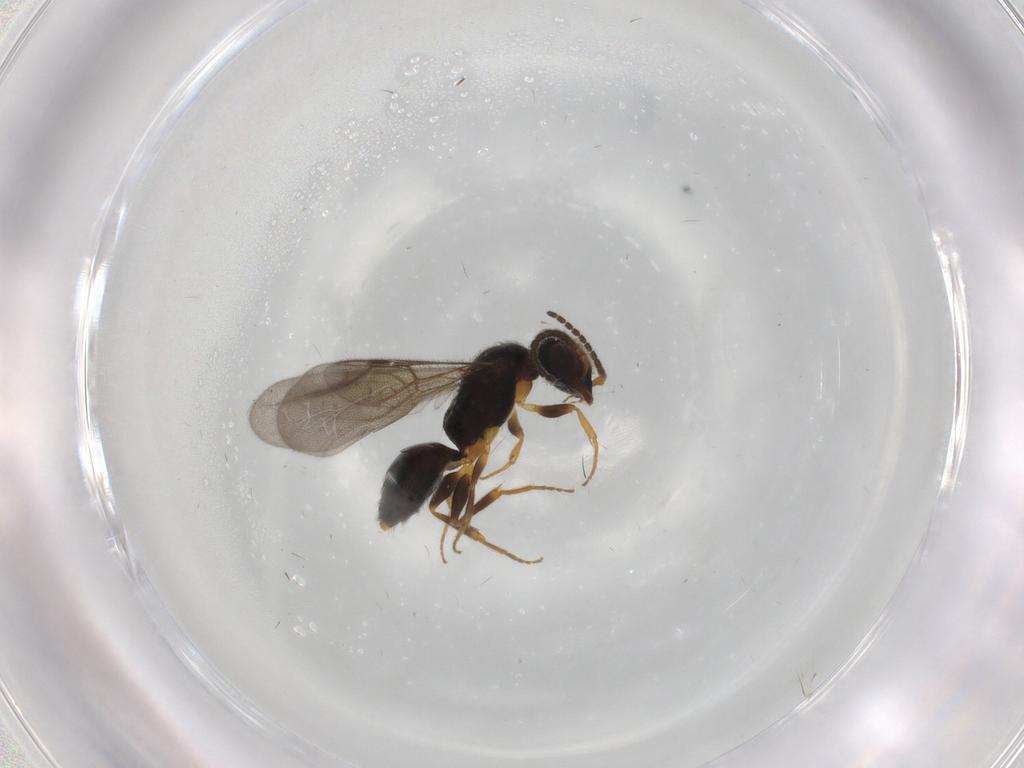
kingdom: Animalia
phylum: Arthropoda
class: Insecta
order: Hymenoptera
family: Bethylidae
